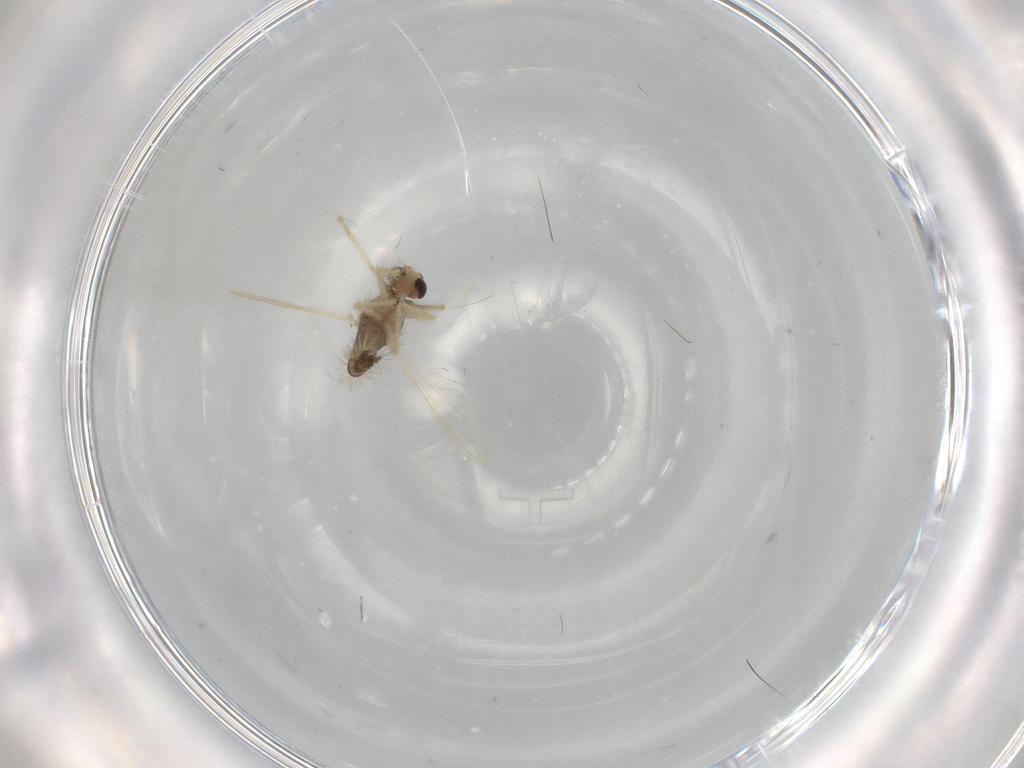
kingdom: Animalia
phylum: Arthropoda
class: Insecta
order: Diptera
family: Chironomidae
